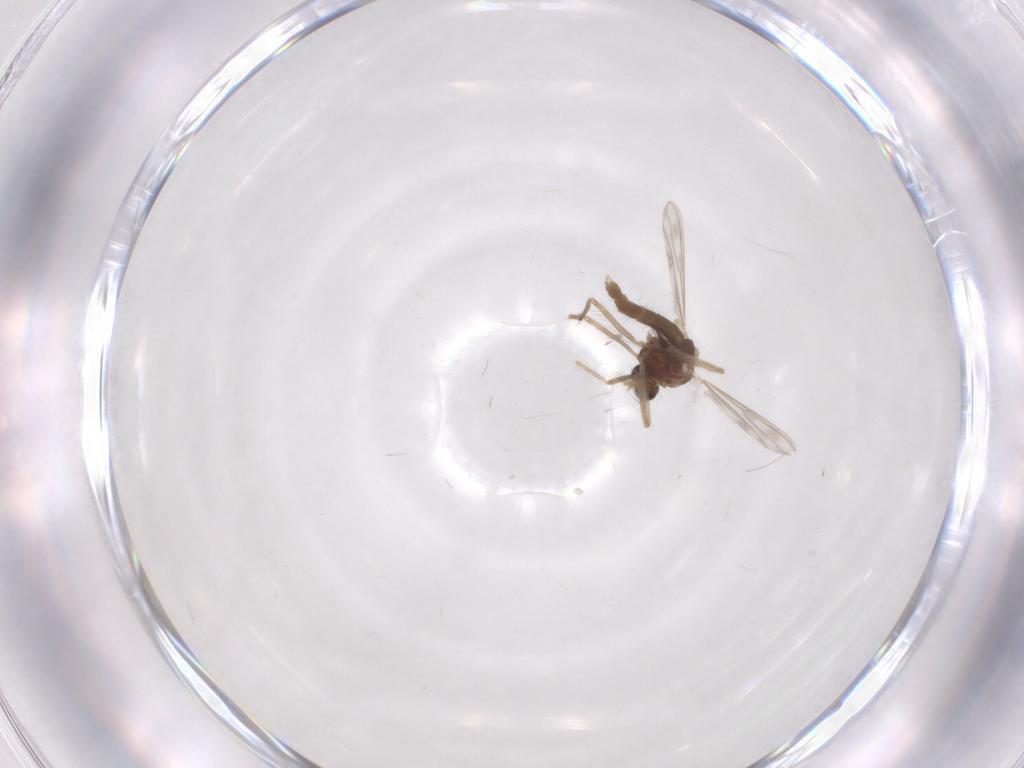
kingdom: Animalia
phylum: Arthropoda
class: Insecta
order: Diptera
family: Chironomidae
